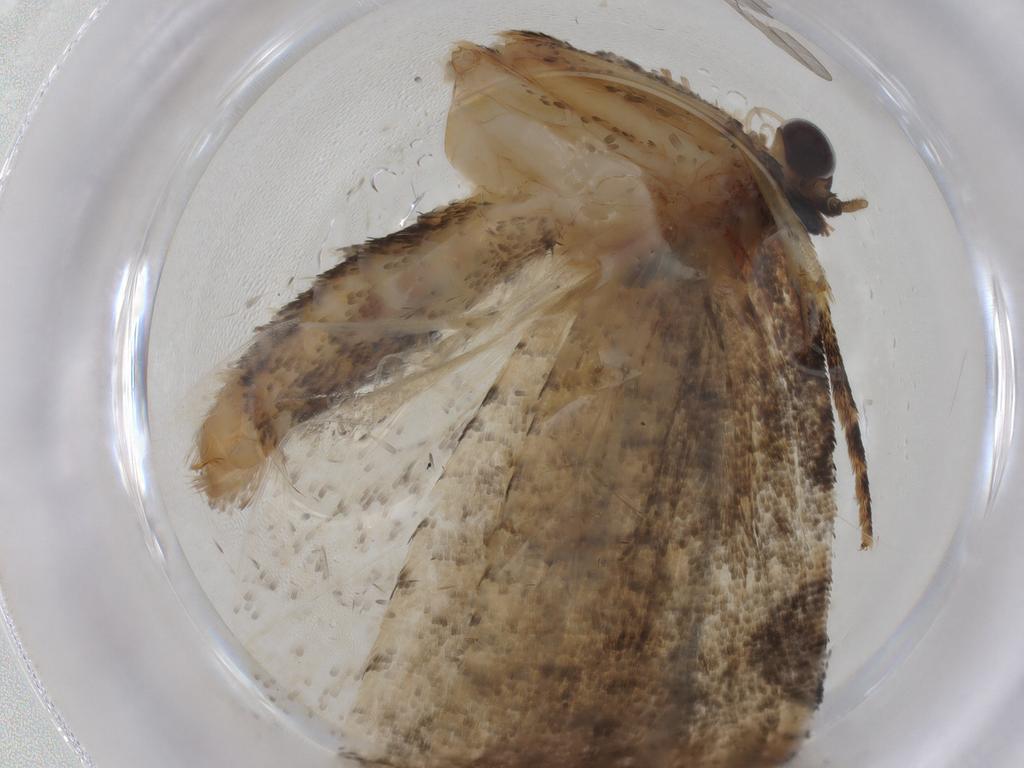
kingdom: Animalia
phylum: Arthropoda
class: Insecta
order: Lepidoptera
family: Tortricidae
